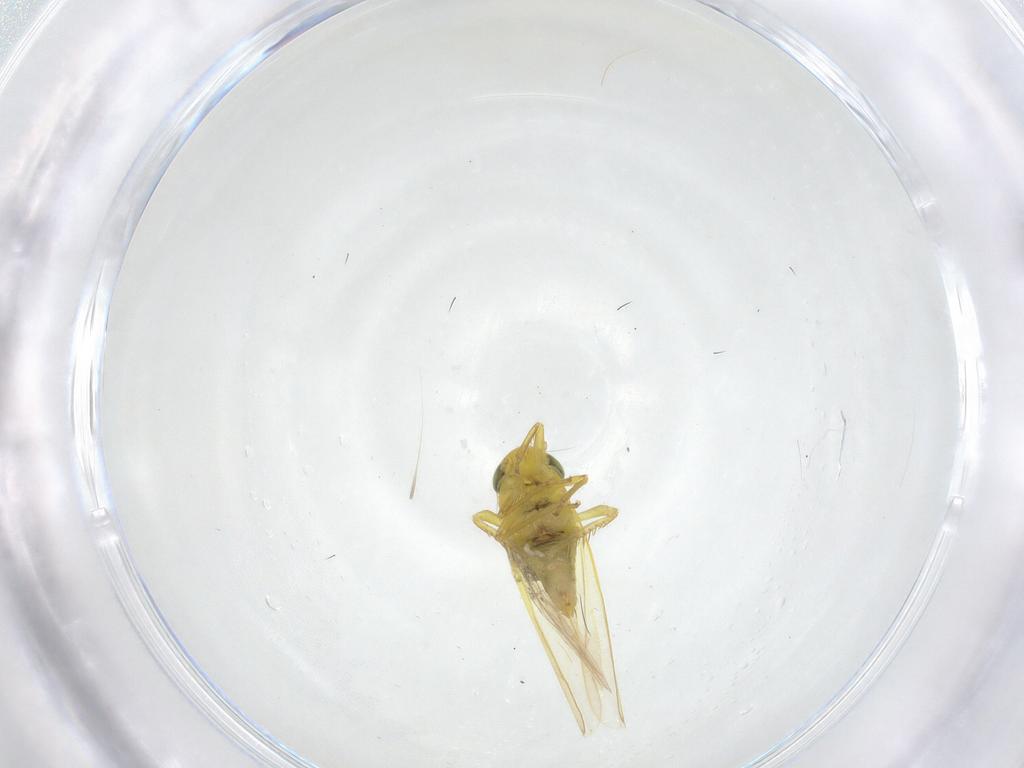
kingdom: Animalia
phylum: Arthropoda
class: Insecta
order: Hemiptera
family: Cicadellidae
